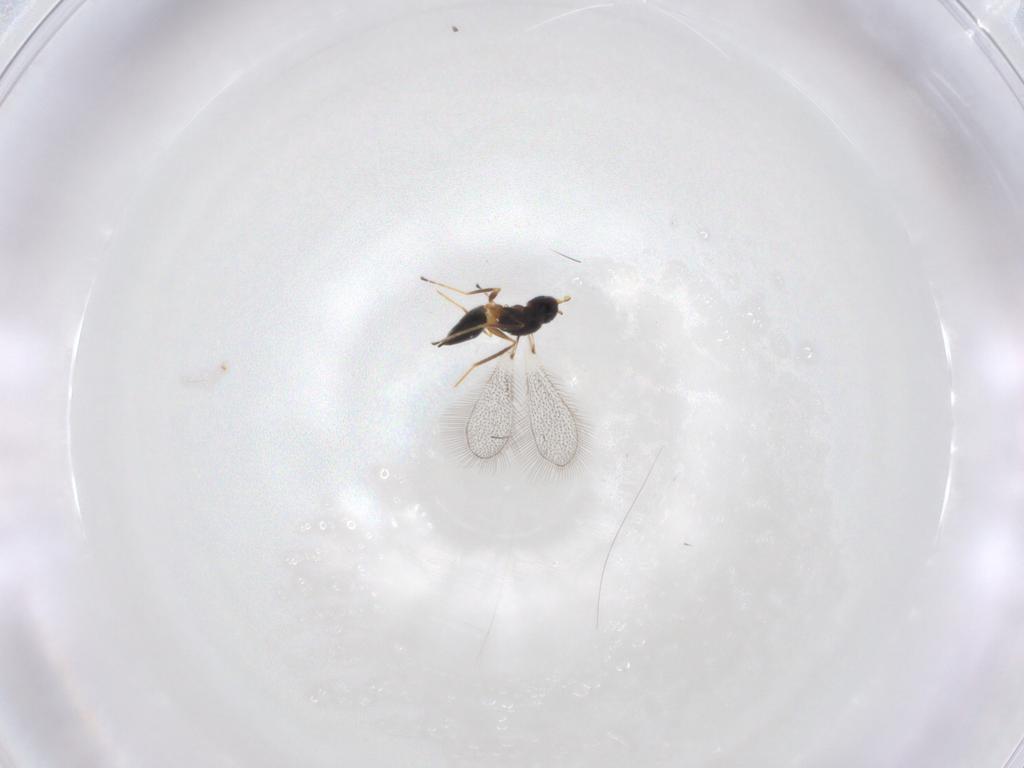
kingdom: Animalia
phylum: Arthropoda
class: Insecta
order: Hymenoptera
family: Mymaridae
